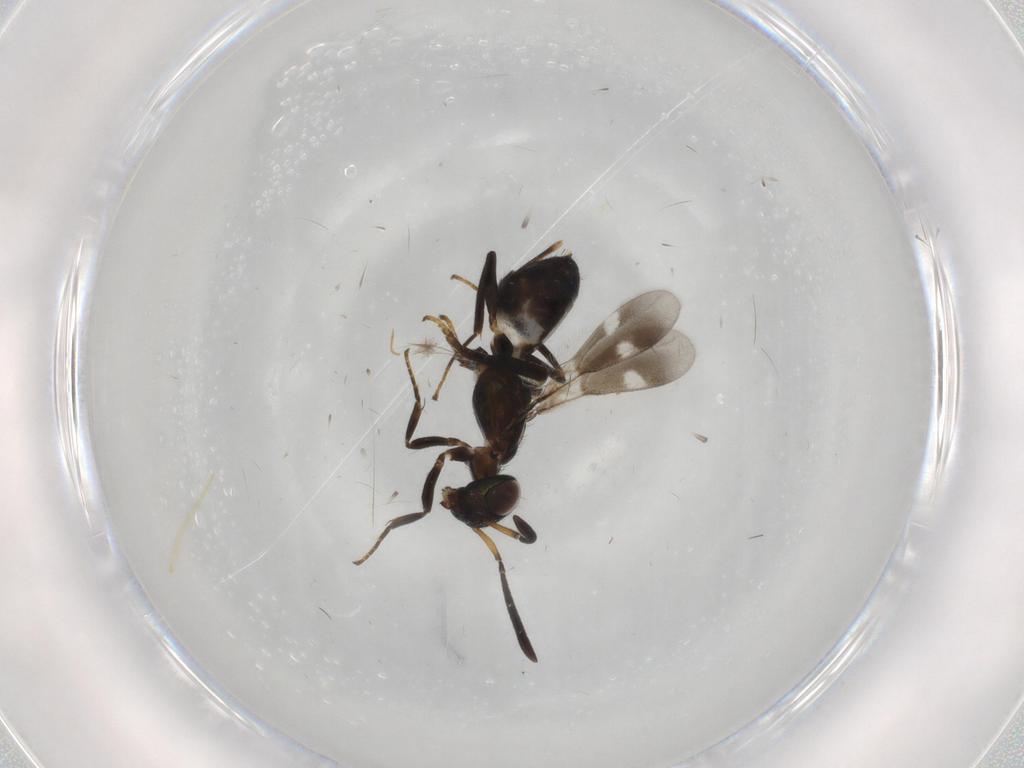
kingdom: Animalia
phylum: Arthropoda
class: Insecta
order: Hymenoptera
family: Eupelmidae
